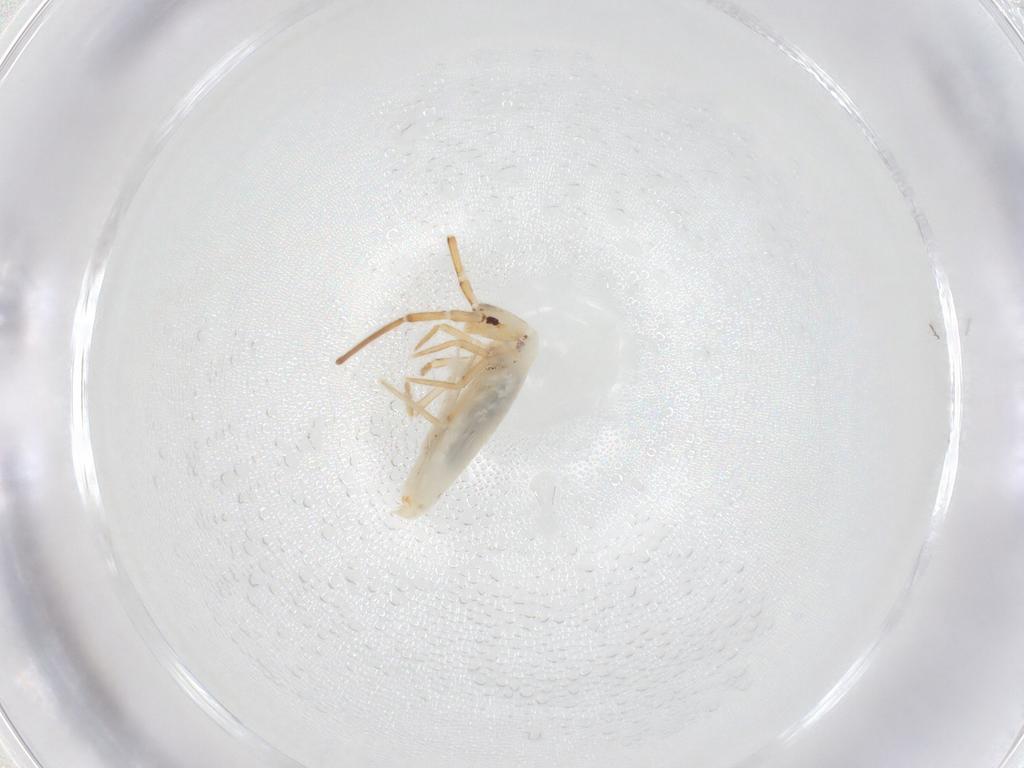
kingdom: Animalia
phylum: Arthropoda
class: Collembola
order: Entomobryomorpha
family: Entomobryidae
